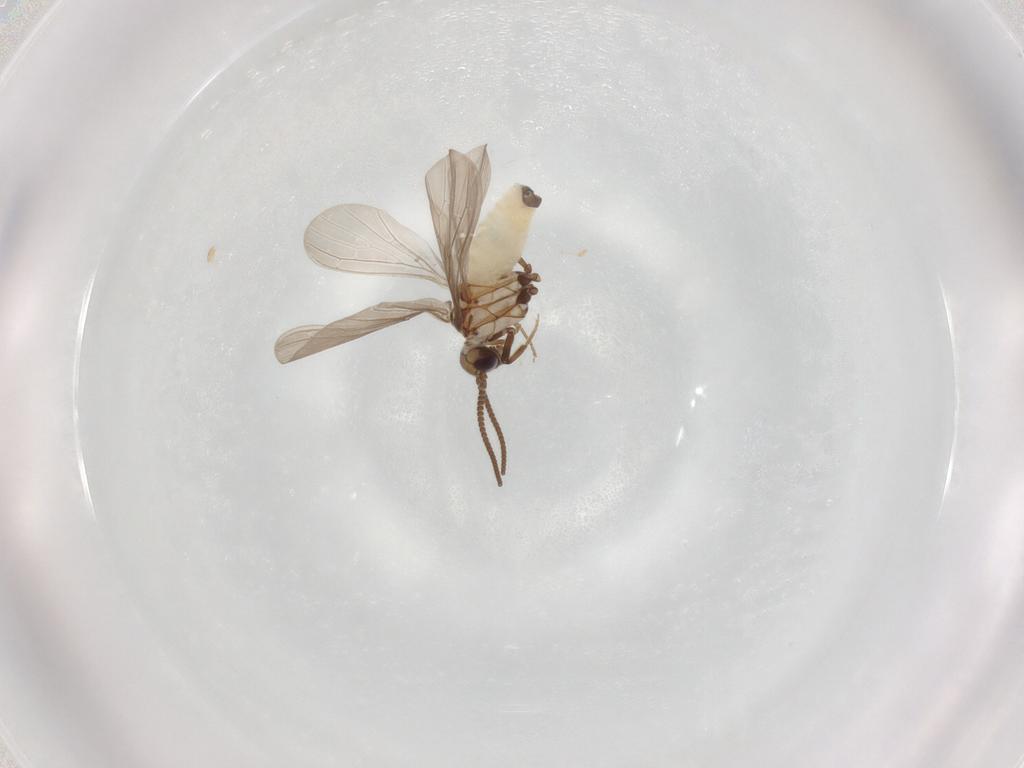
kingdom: Animalia
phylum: Arthropoda
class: Insecta
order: Neuroptera
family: Coniopterygidae
